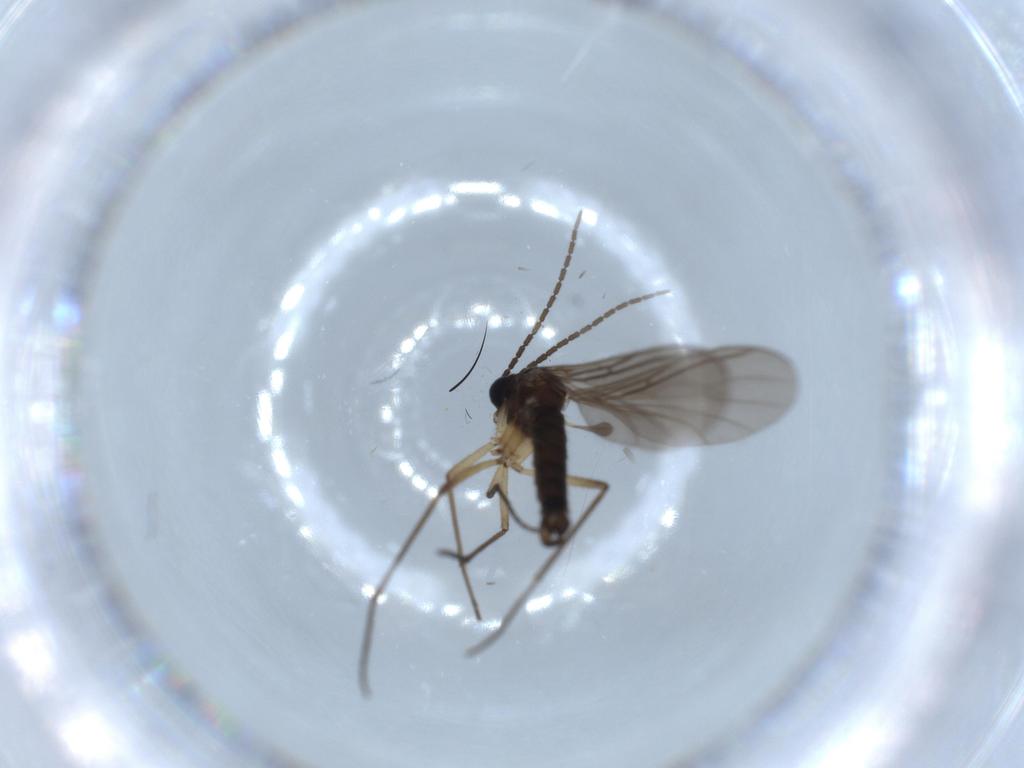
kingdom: Animalia
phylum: Arthropoda
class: Insecta
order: Diptera
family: Sciaridae
